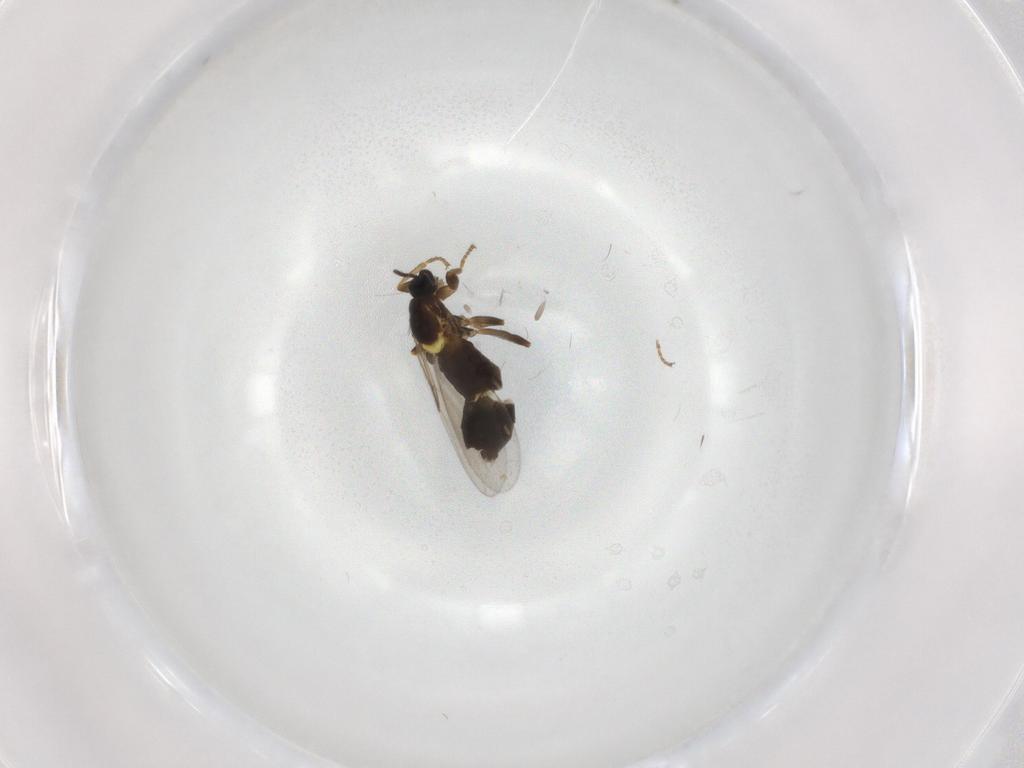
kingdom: Animalia
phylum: Arthropoda
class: Insecta
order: Diptera
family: Scatopsidae
